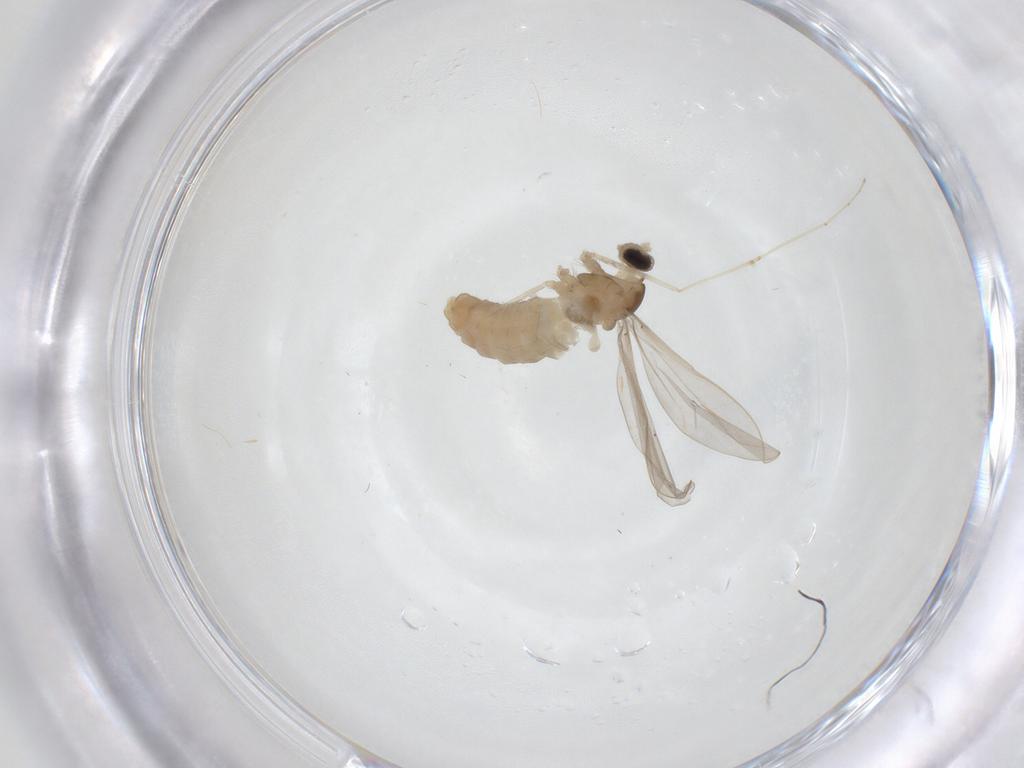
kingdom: Animalia
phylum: Arthropoda
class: Insecta
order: Diptera
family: Cecidomyiidae
